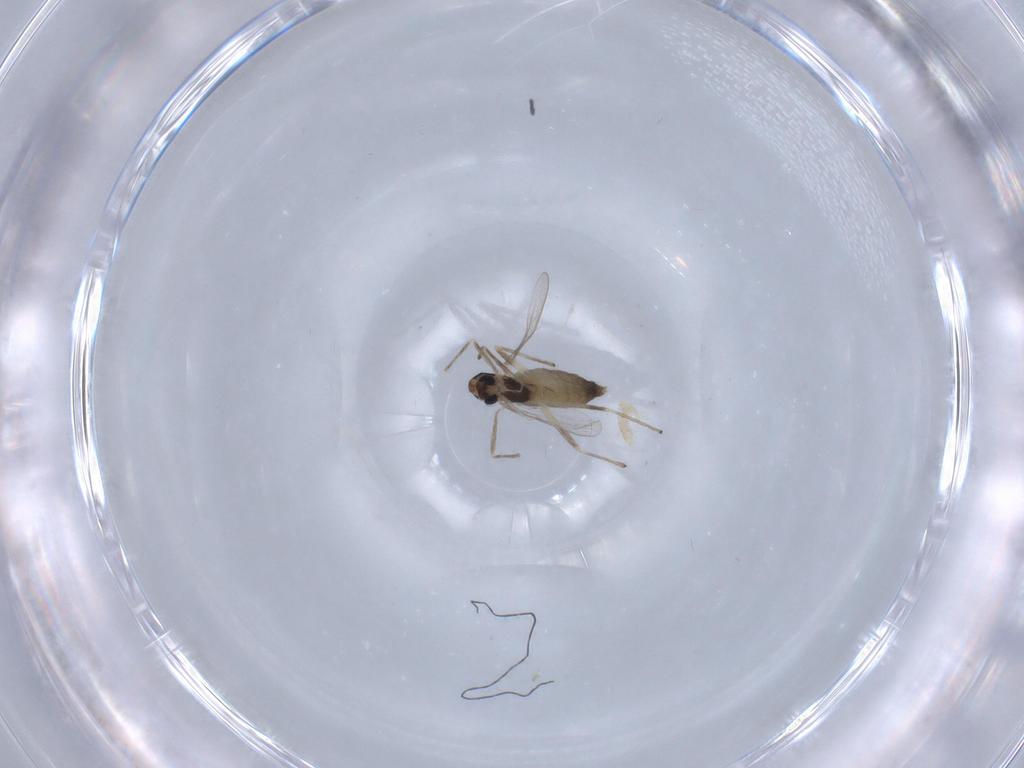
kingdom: Animalia
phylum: Arthropoda
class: Insecta
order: Diptera
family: Chironomidae
